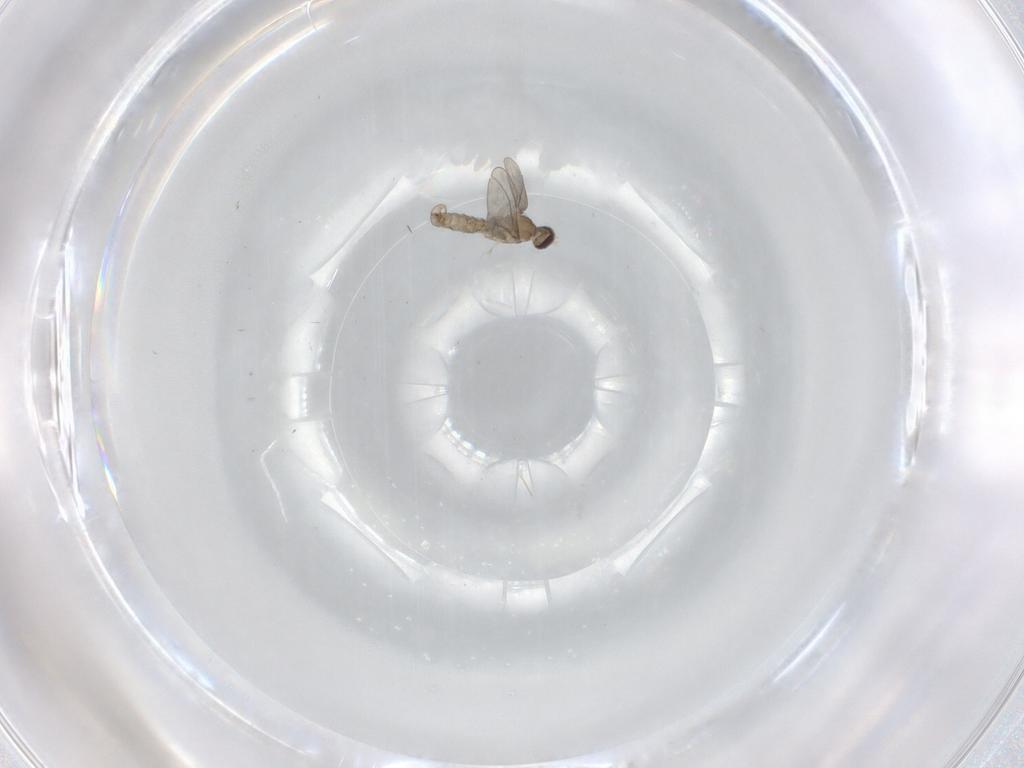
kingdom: Animalia
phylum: Arthropoda
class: Insecta
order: Diptera
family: Cecidomyiidae
